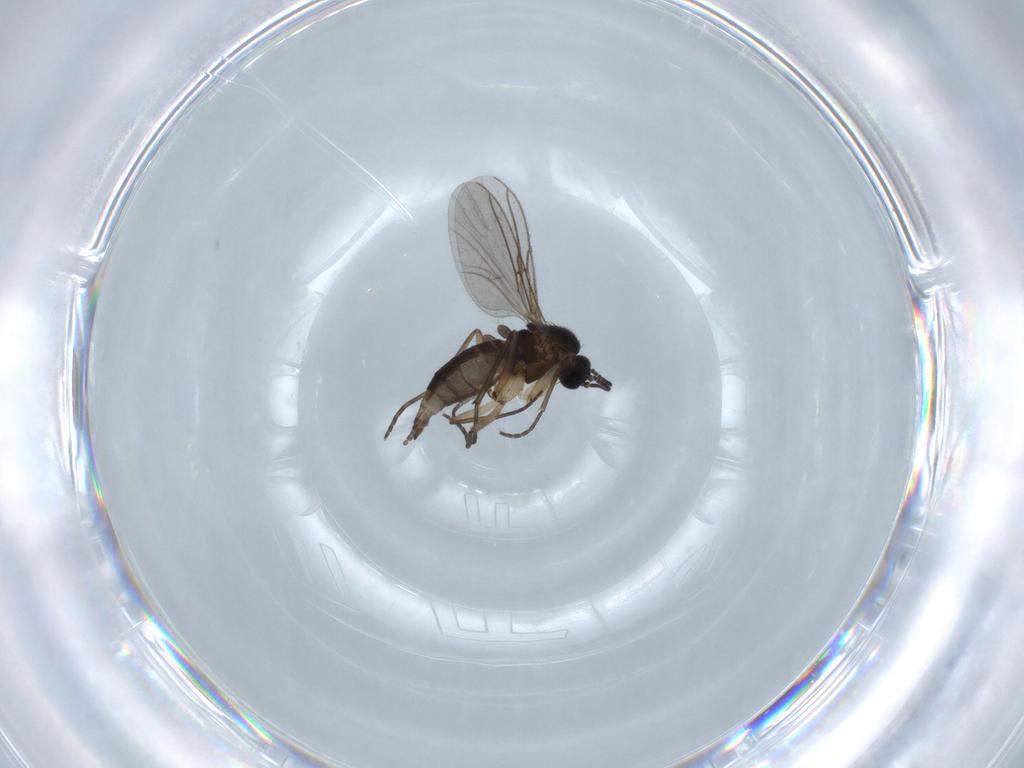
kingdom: Animalia
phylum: Arthropoda
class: Insecta
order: Diptera
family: Sciaridae
